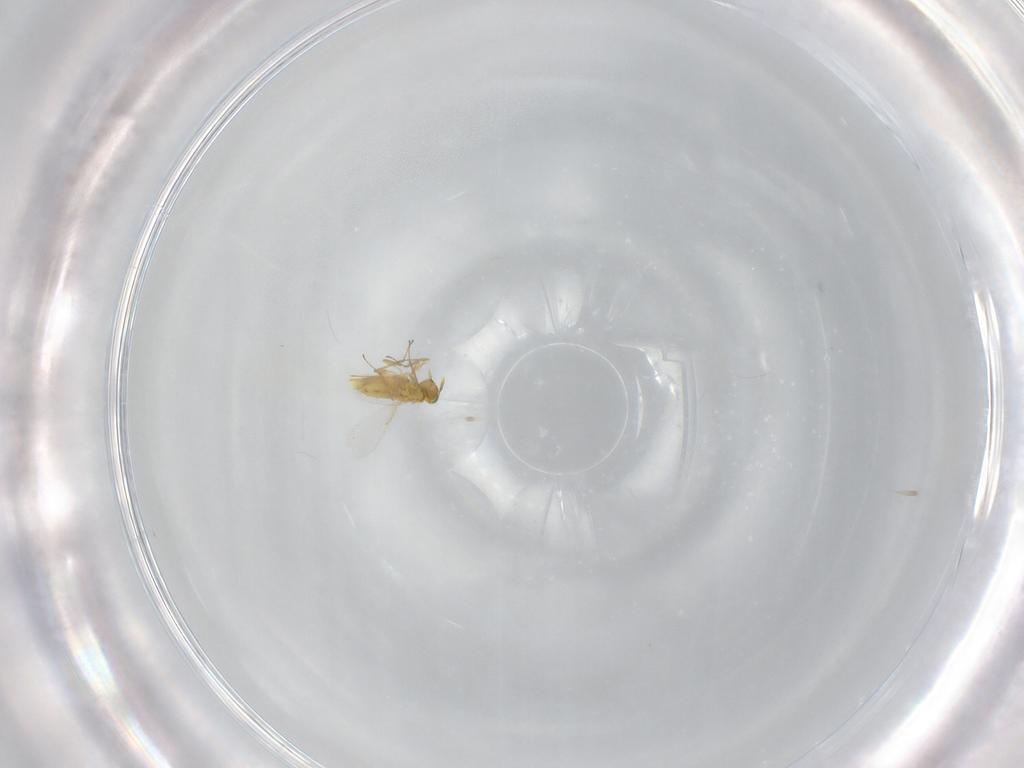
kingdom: Animalia
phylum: Arthropoda
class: Insecta
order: Hymenoptera
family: Aphelinidae
